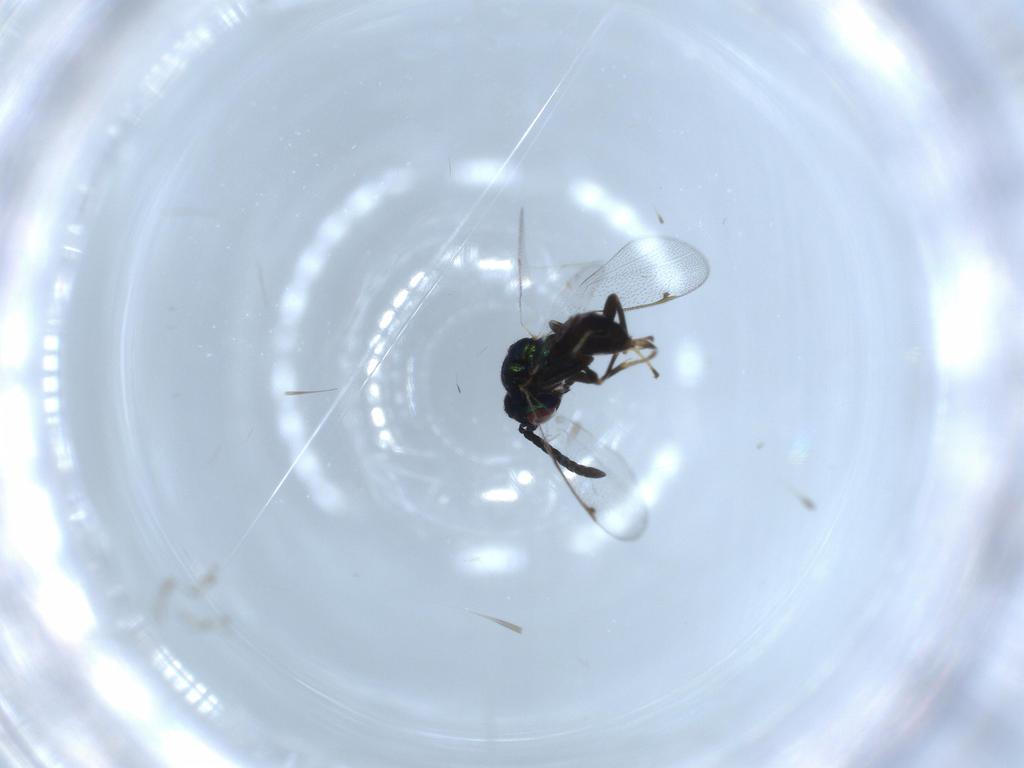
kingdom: Animalia
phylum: Arthropoda
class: Insecta
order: Hymenoptera
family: Torymidae
